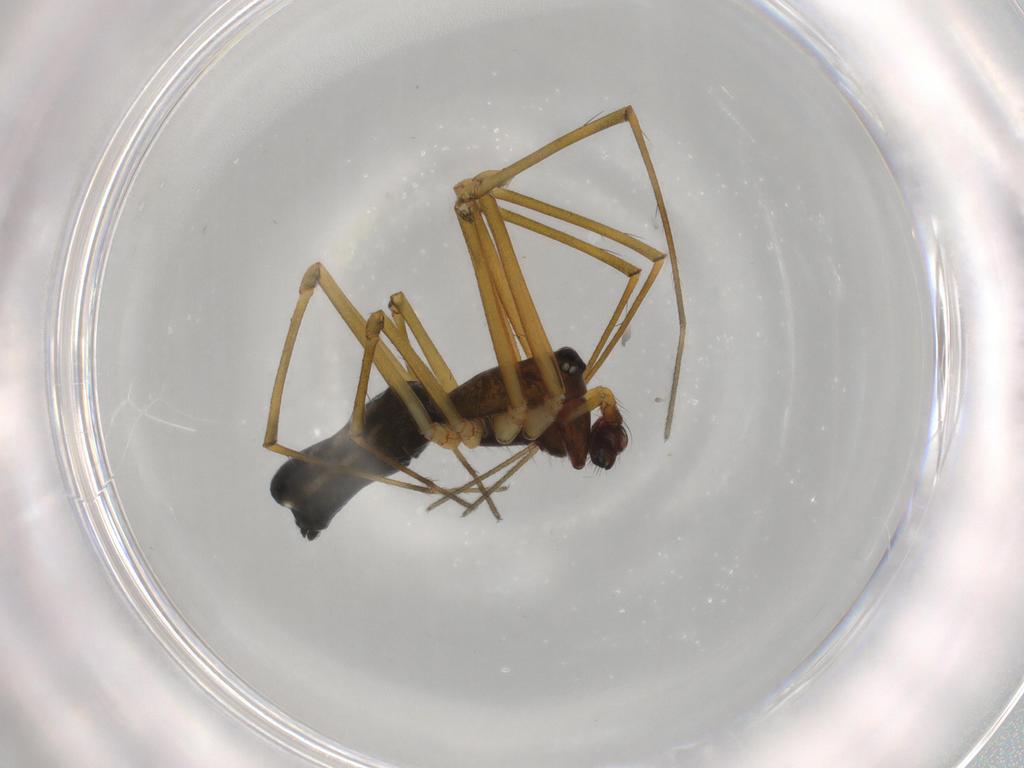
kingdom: Animalia
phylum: Arthropoda
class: Arachnida
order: Araneae
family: Theridiidae
